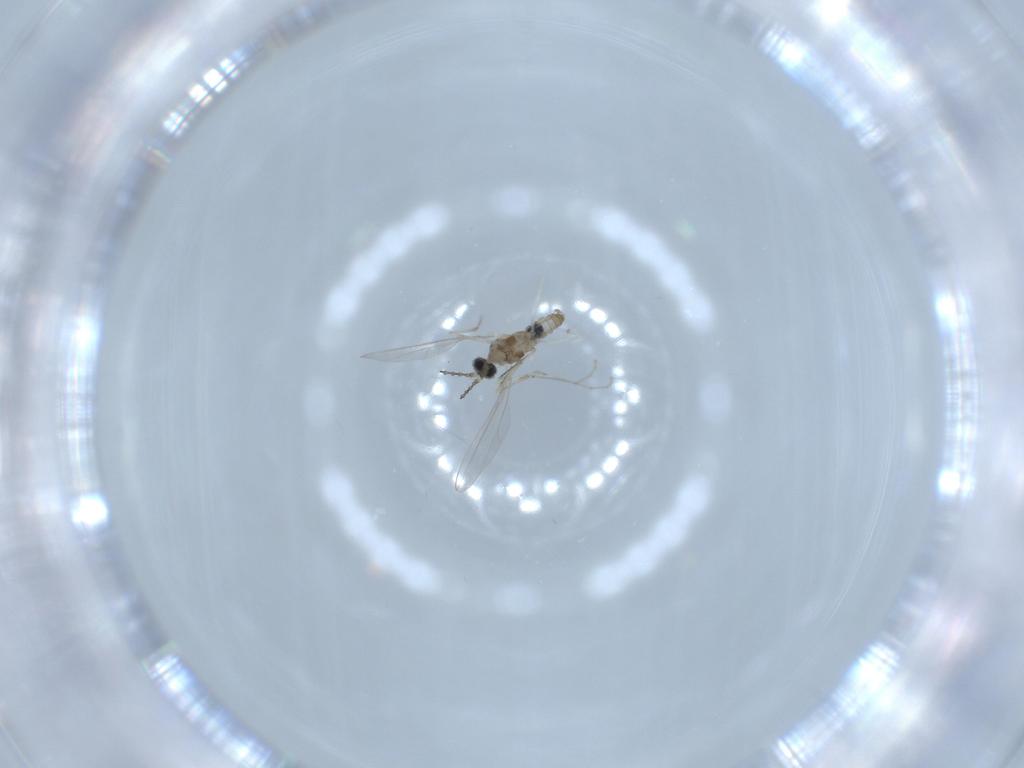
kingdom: Animalia
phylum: Arthropoda
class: Insecta
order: Diptera
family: Cecidomyiidae
